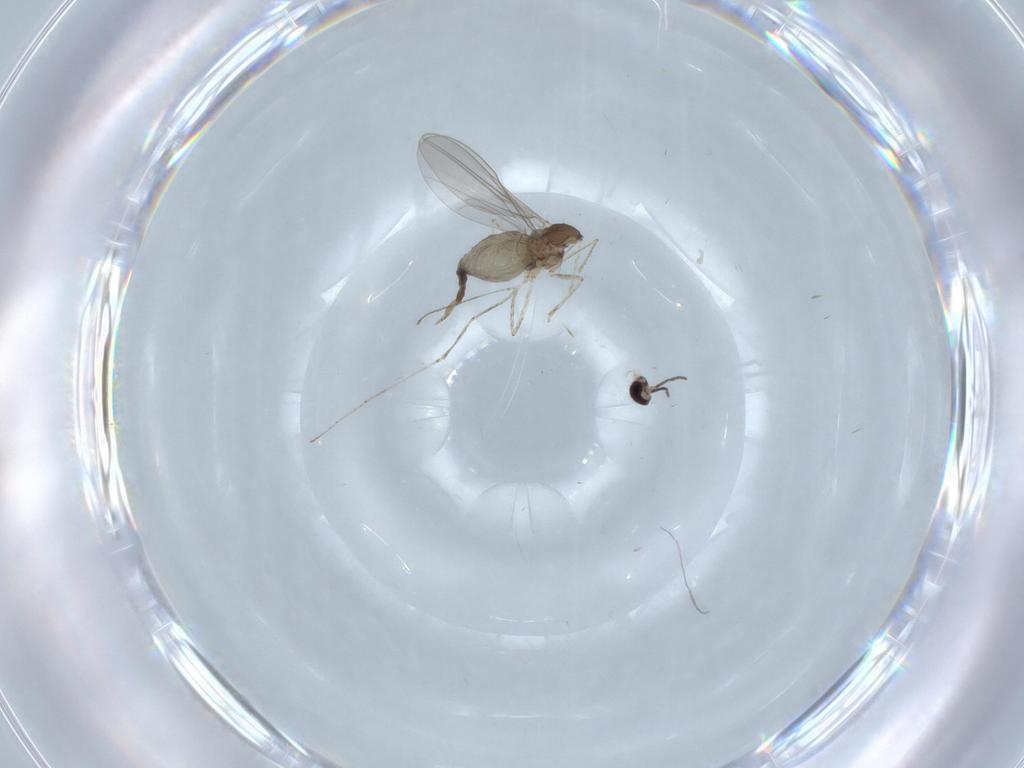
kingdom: Animalia
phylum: Arthropoda
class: Insecta
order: Diptera
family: Cecidomyiidae
